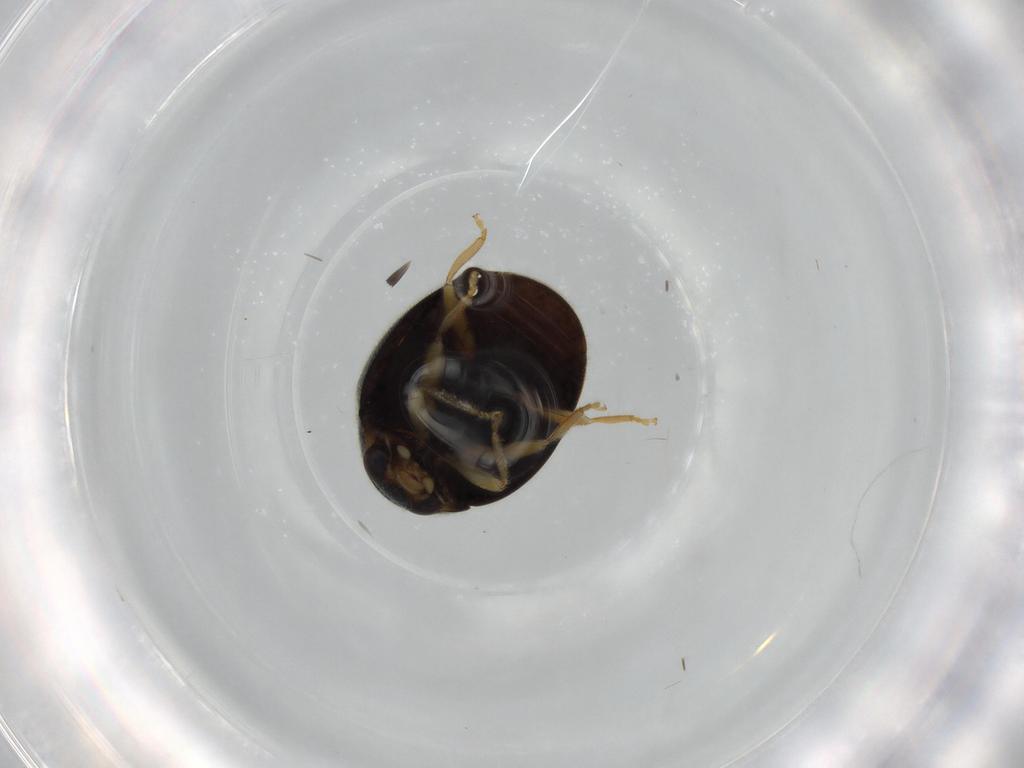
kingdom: Animalia
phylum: Arthropoda
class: Insecta
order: Coleoptera
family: Coccinellidae
